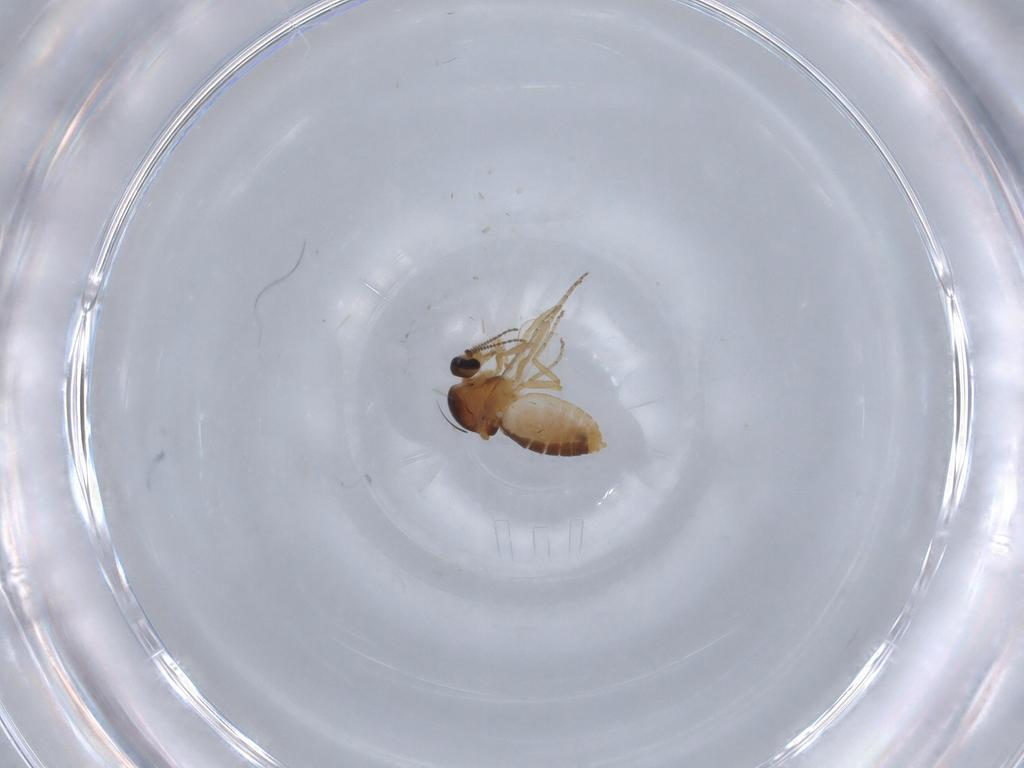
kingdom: Animalia
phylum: Arthropoda
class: Insecta
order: Diptera
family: Ceratopogonidae
